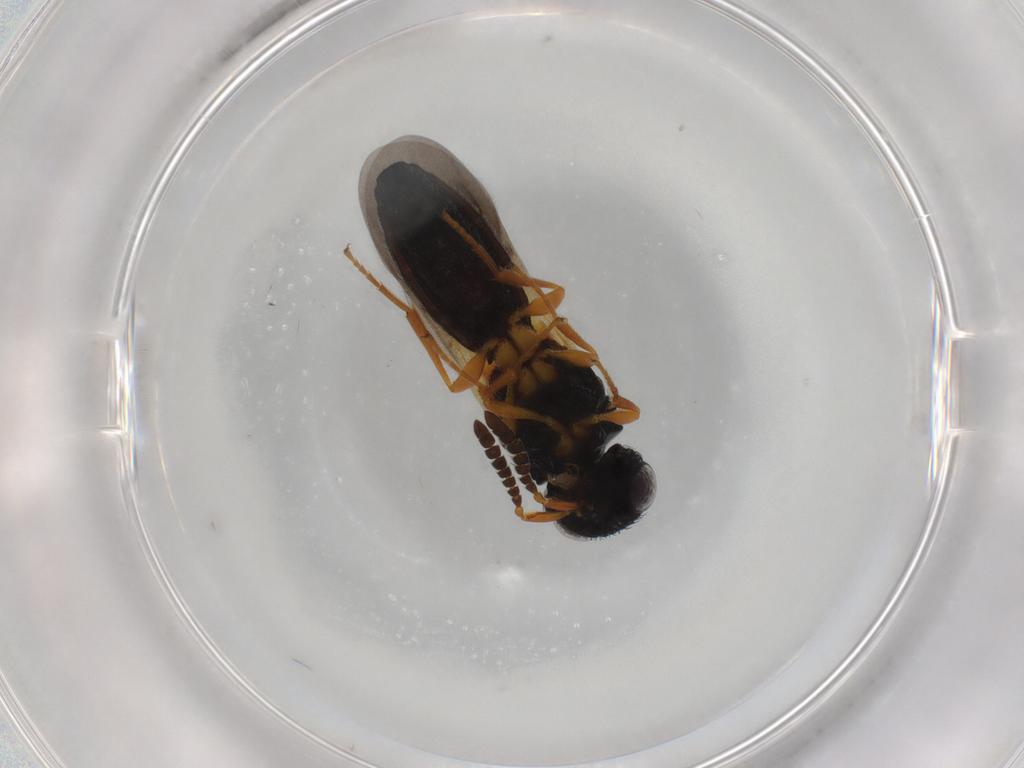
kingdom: Animalia
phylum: Arthropoda
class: Insecta
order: Hymenoptera
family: Scelionidae
